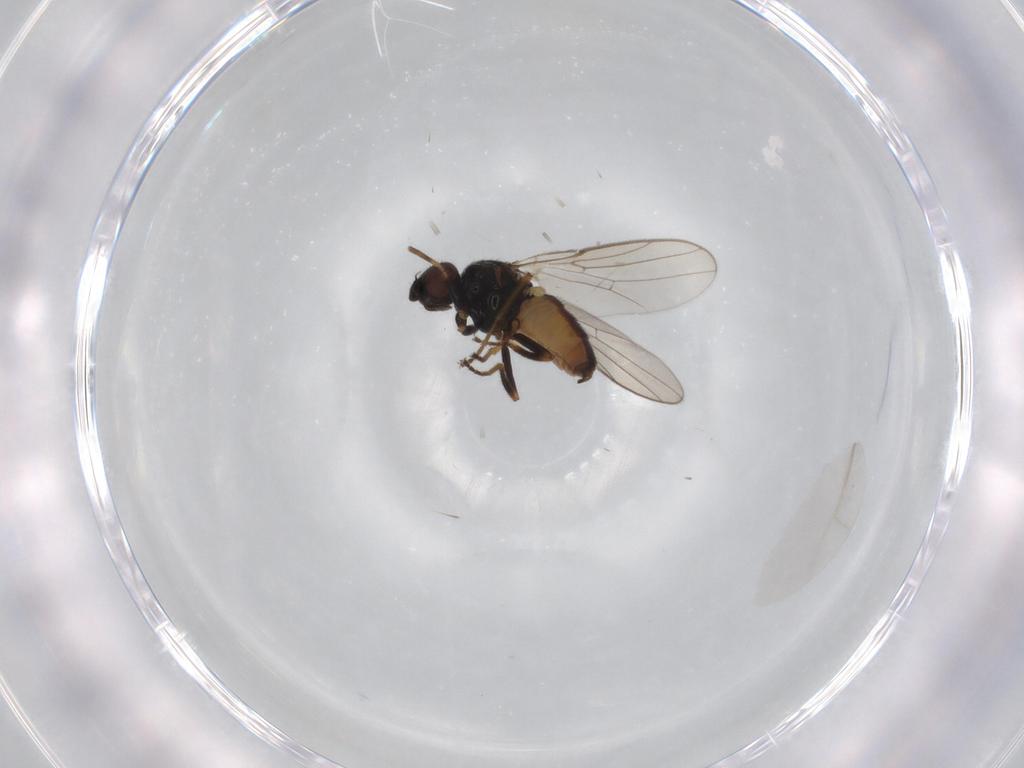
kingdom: Animalia
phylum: Arthropoda
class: Insecta
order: Diptera
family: Chloropidae
